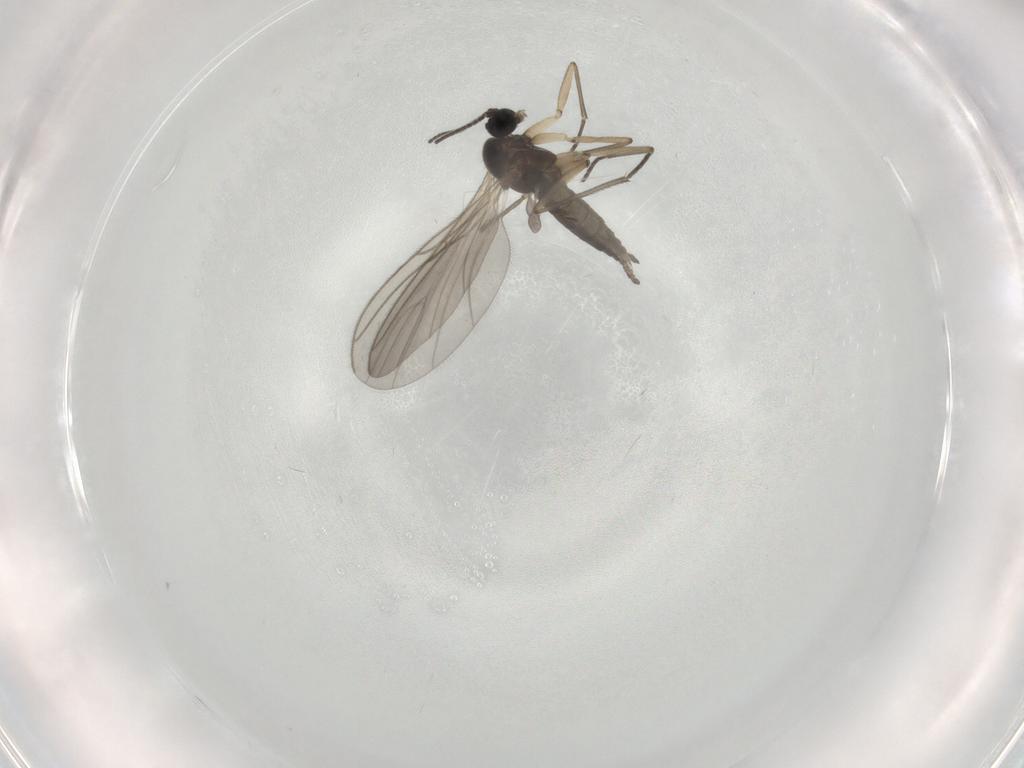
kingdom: Animalia
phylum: Arthropoda
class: Insecta
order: Diptera
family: Sciaridae
